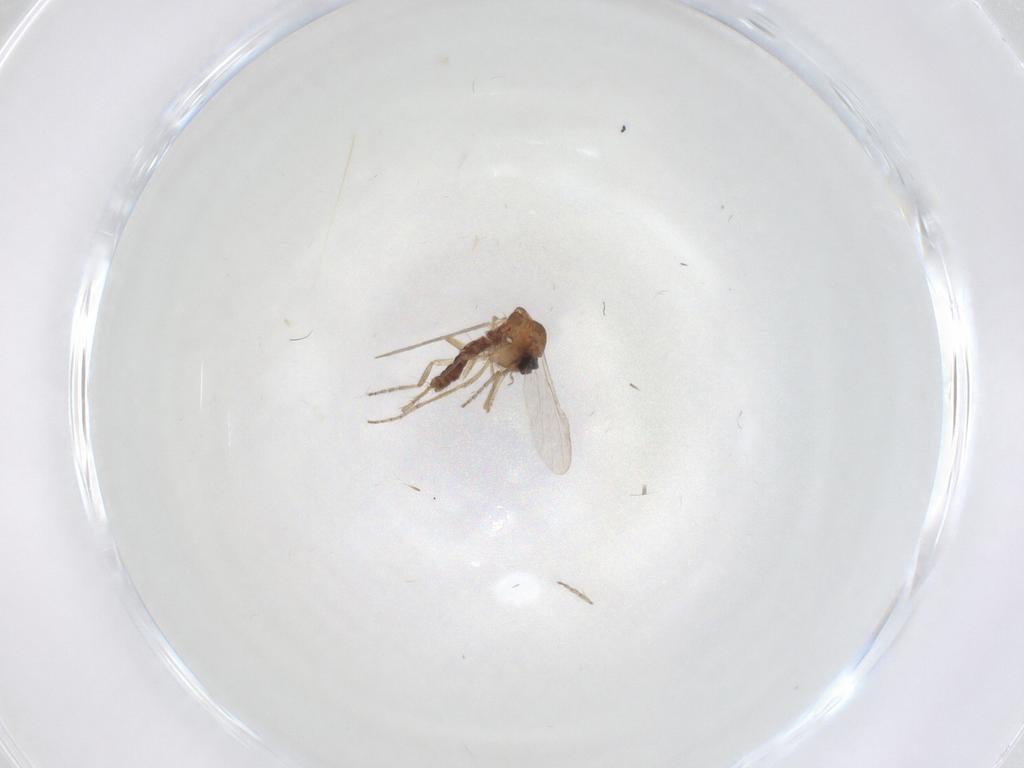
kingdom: Animalia
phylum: Arthropoda
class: Insecta
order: Diptera
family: Ceratopogonidae
